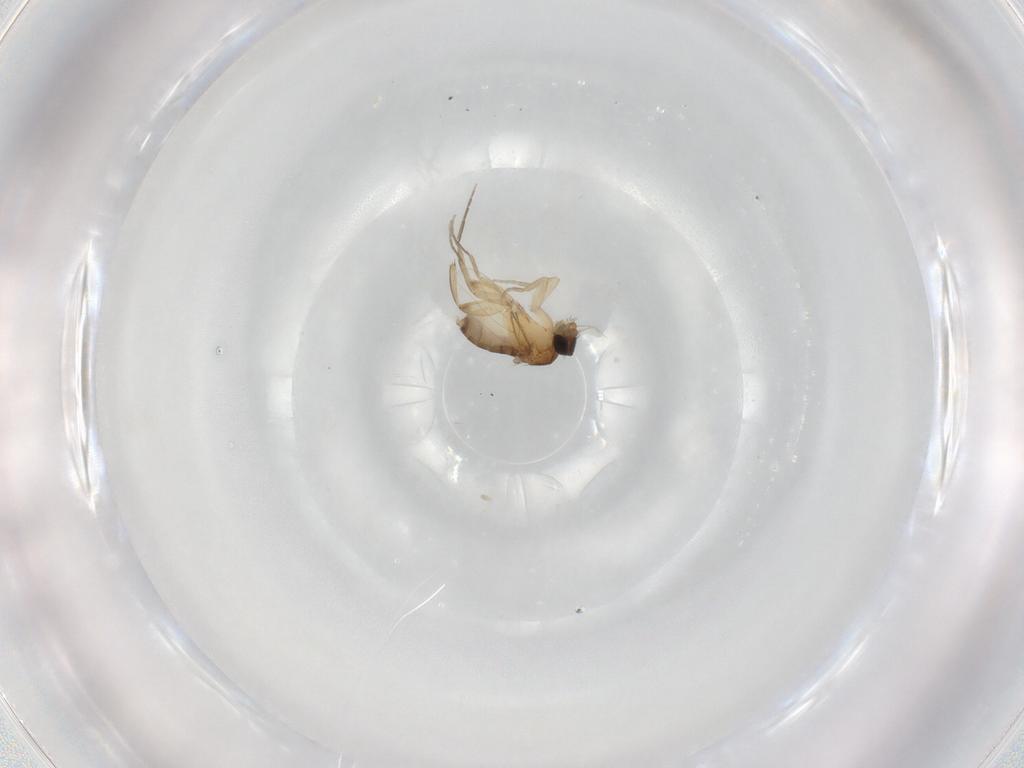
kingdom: Animalia
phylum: Arthropoda
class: Insecta
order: Diptera
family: Phoridae
